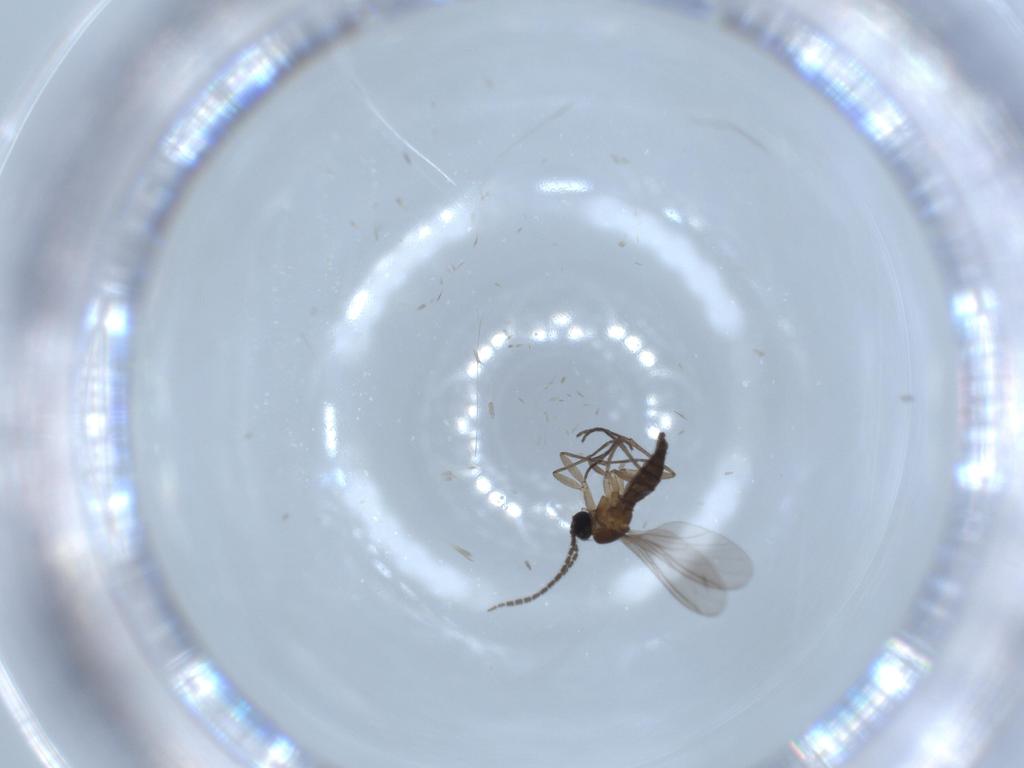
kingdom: Animalia
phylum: Arthropoda
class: Insecta
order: Diptera
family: Sciaridae
